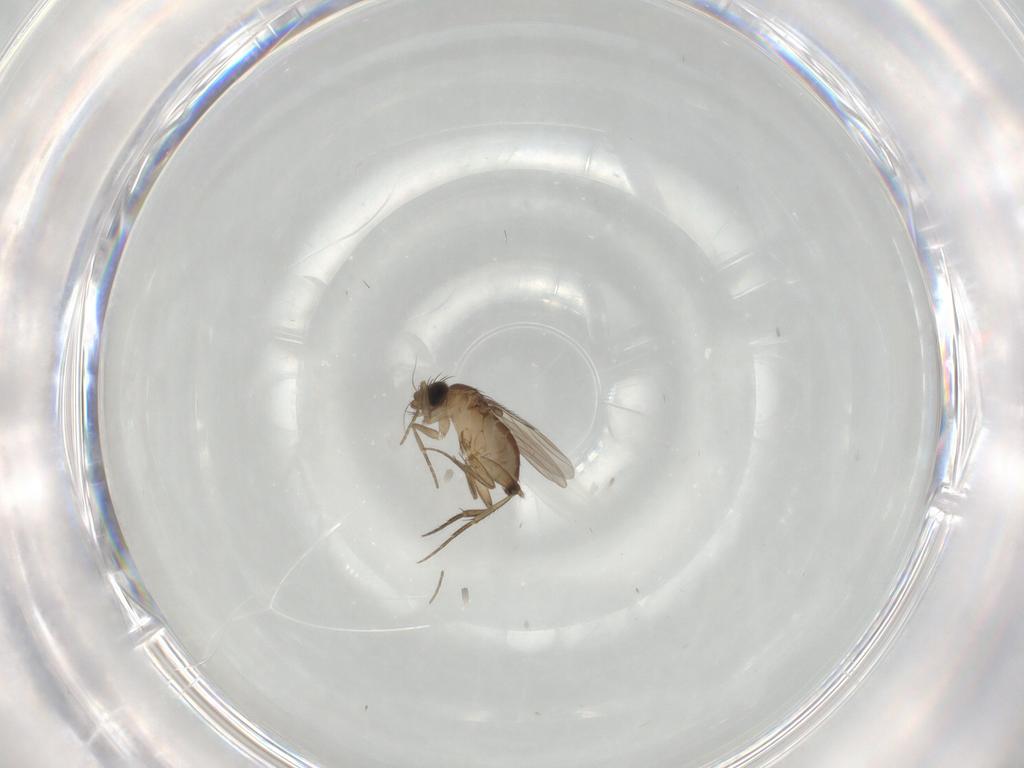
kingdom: Animalia
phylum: Arthropoda
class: Insecta
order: Diptera
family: Phoridae
